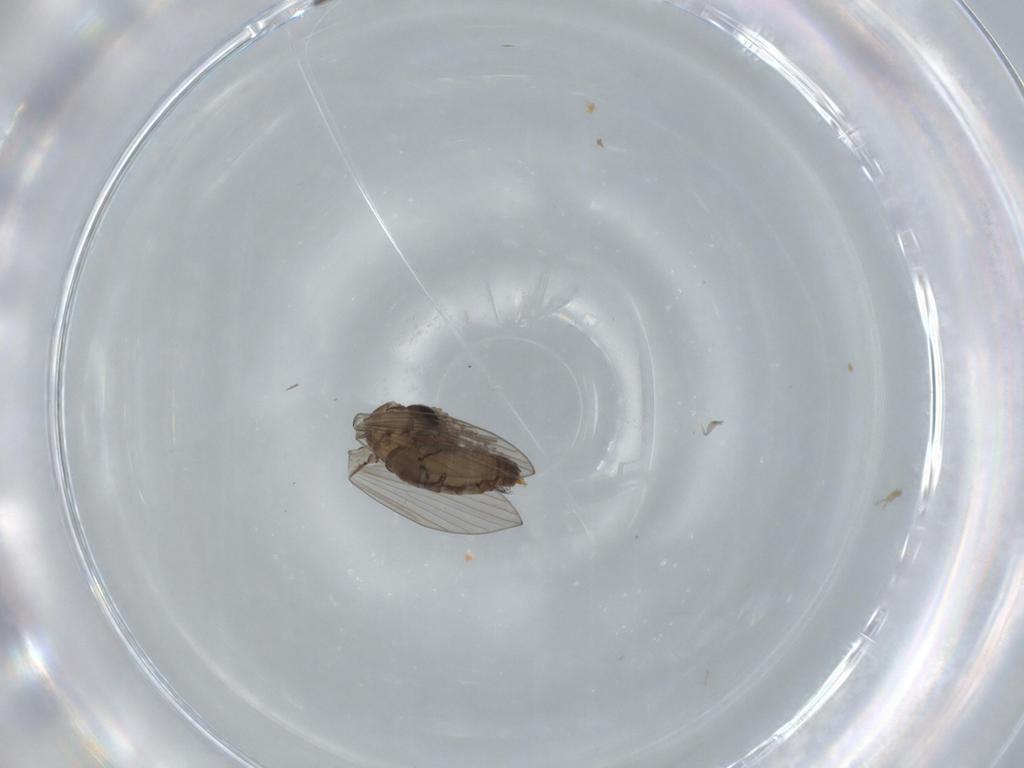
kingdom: Animalia
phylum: Arthropoda
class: Insecta
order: Diptera
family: Psychodidae
